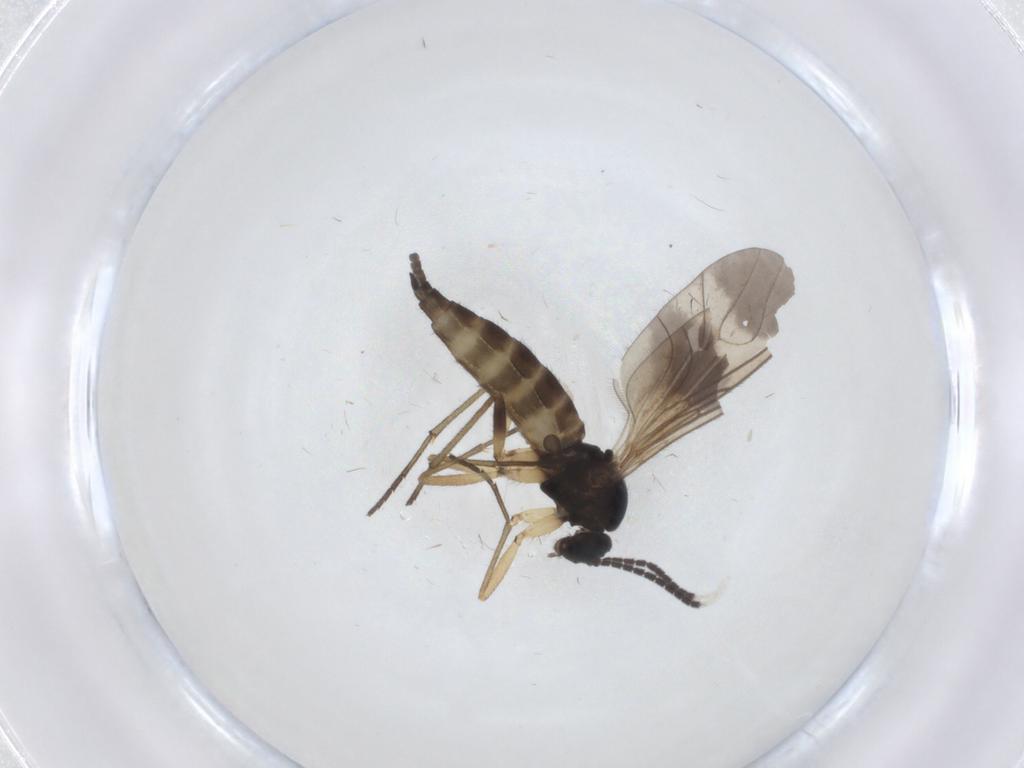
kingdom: Animalia
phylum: Arthropoda
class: Insecta
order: Diptera
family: Sciaridae
